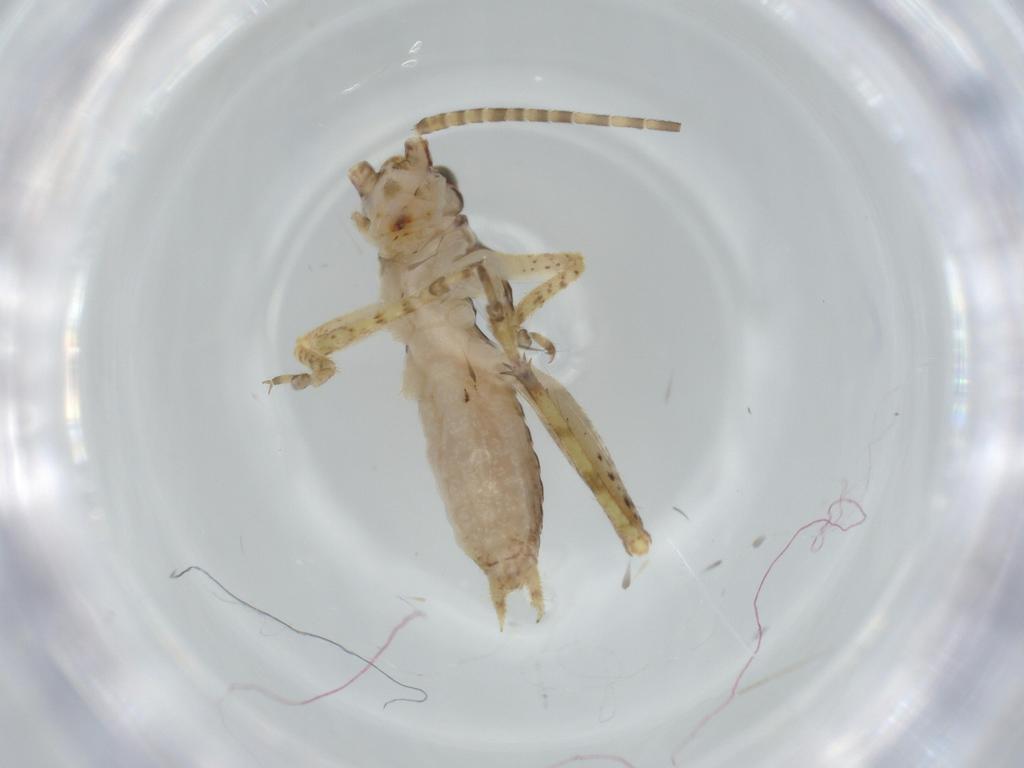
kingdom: Animalia
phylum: Arthropoda
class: Insecta
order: Orthoptera
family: Gryllidae
